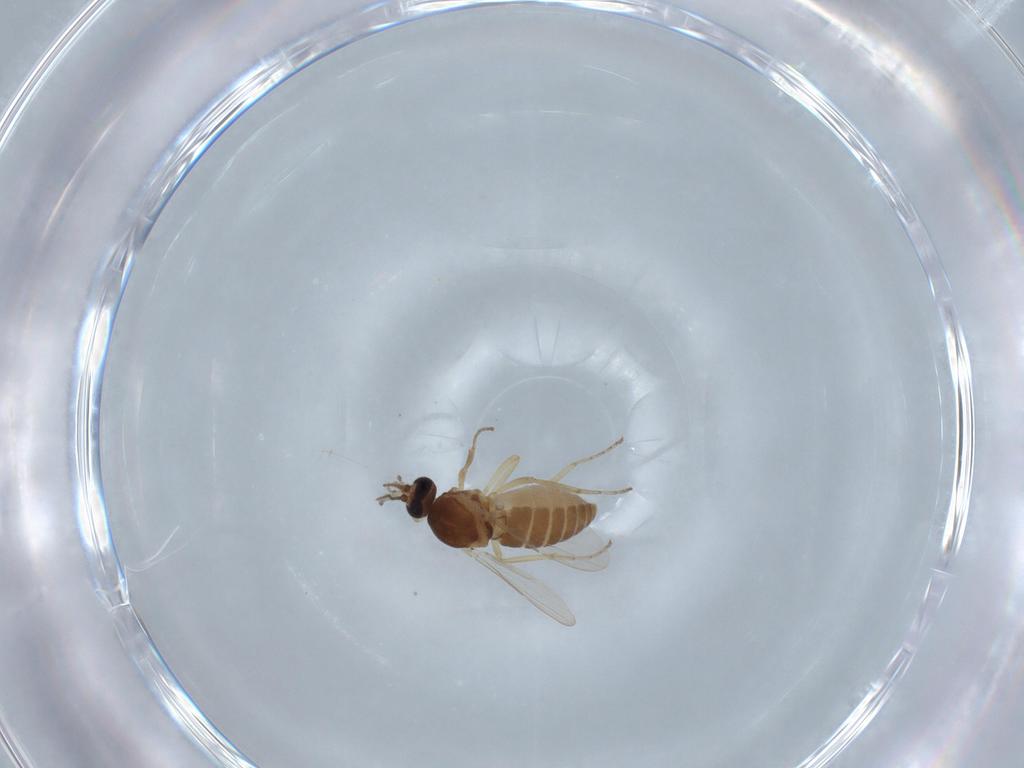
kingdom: Animalia
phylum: Arthropoda
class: Insecta
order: Diptera
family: Ceratopogonidae
